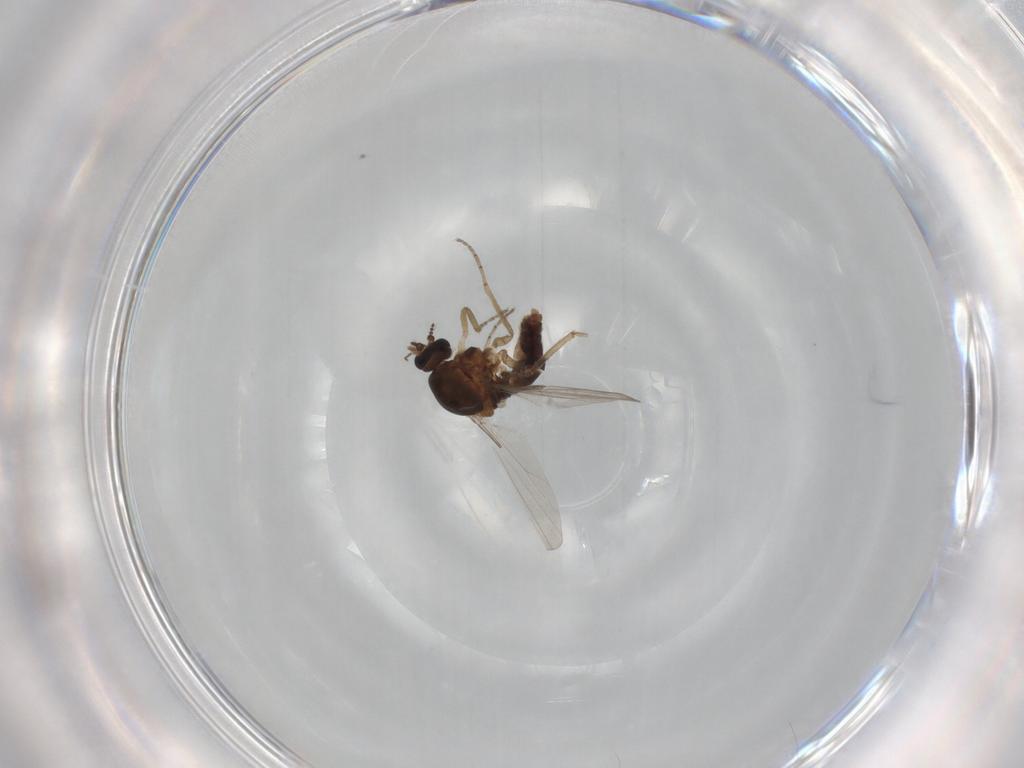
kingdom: Animalia
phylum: Arthropoda
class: Insecta
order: Diptera
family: Ceratopogonidae
